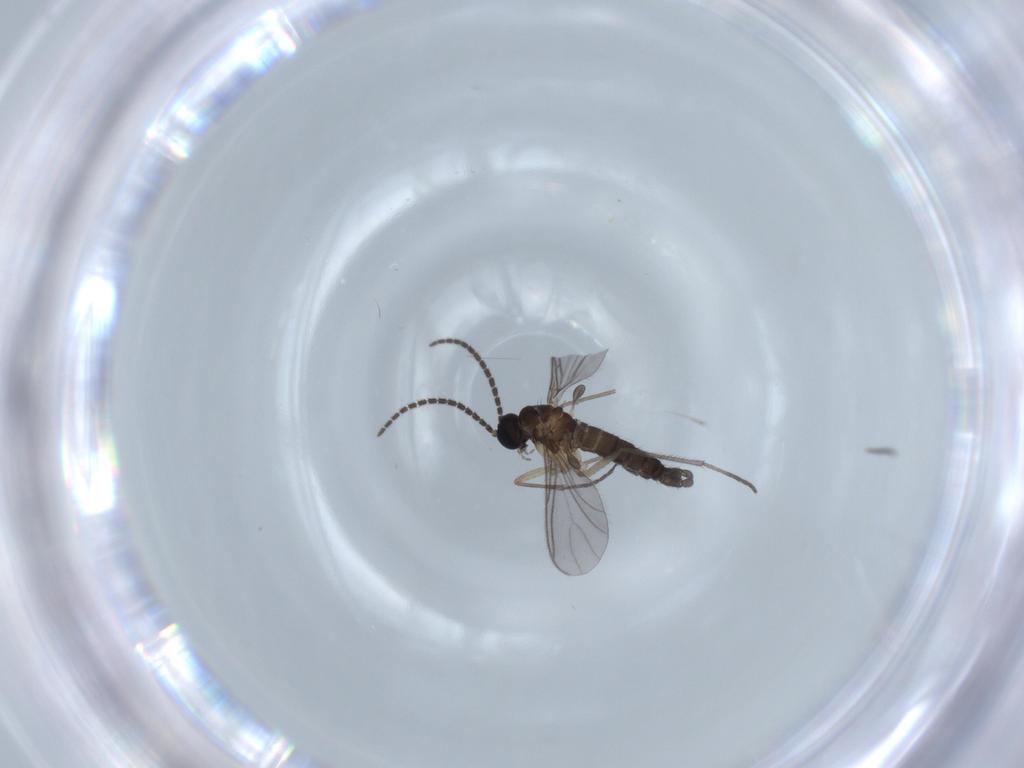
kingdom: Animalia
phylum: Arthropoda
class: Insecta
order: Diptera
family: Sciaridae
